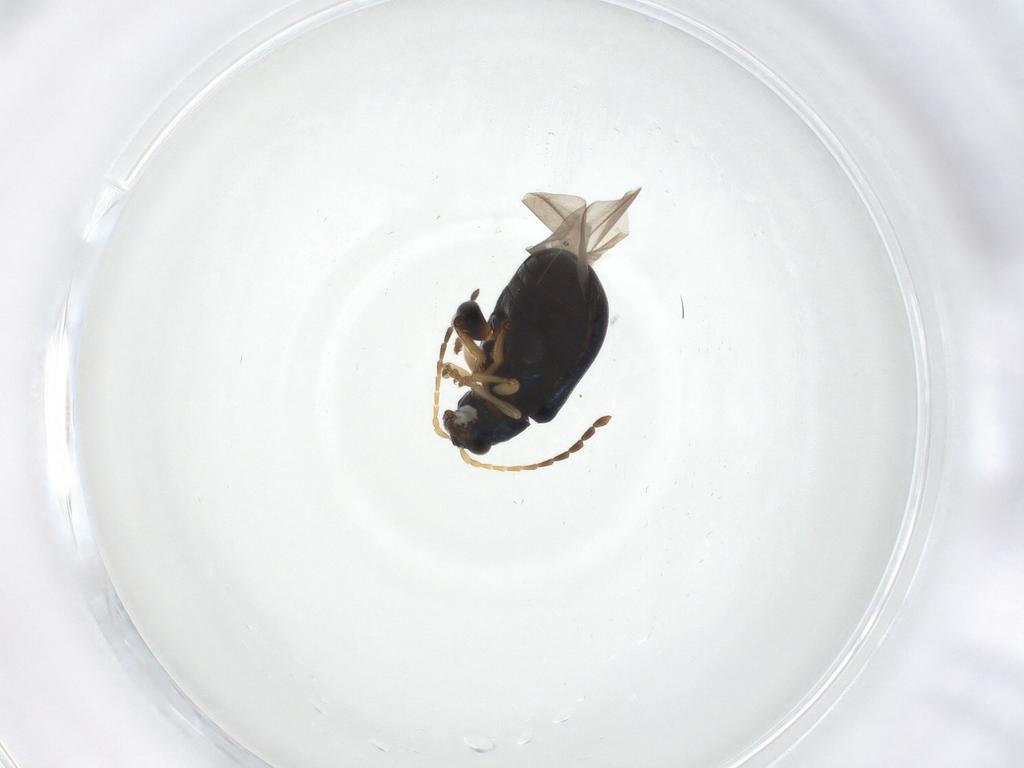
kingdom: Animalia
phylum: Arthropoda
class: Insecta
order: Coleoptera
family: Chrysomelidae
